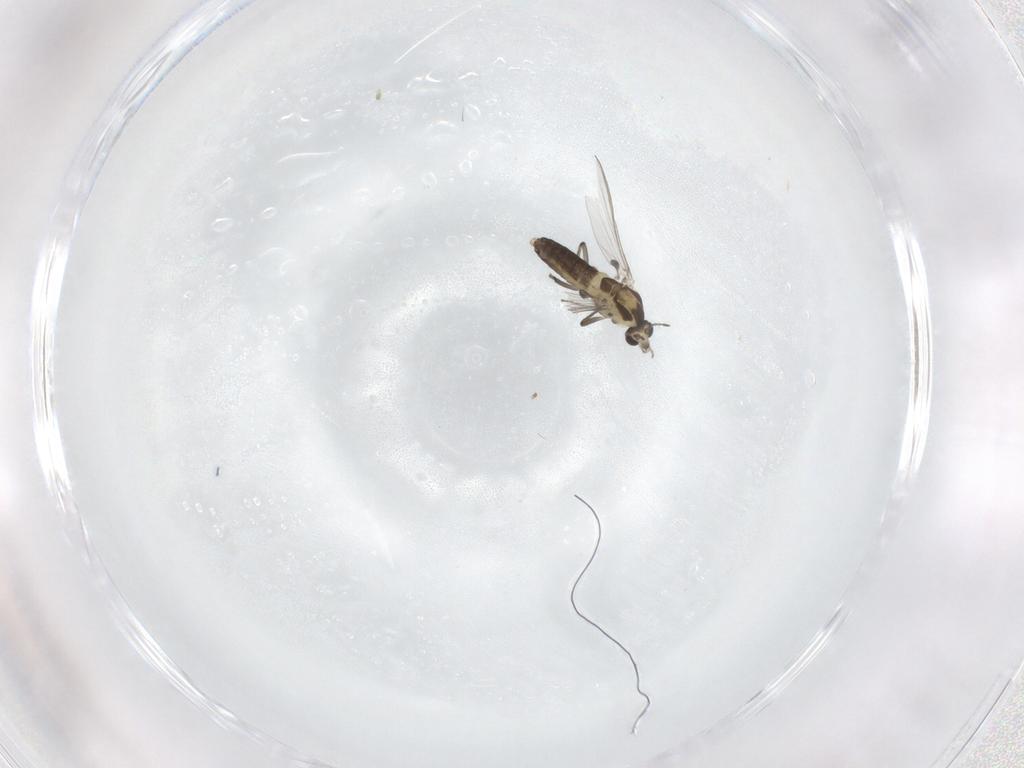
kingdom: Animalia
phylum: Arthropoda
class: Insecta
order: Diptera
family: Chironomidae
